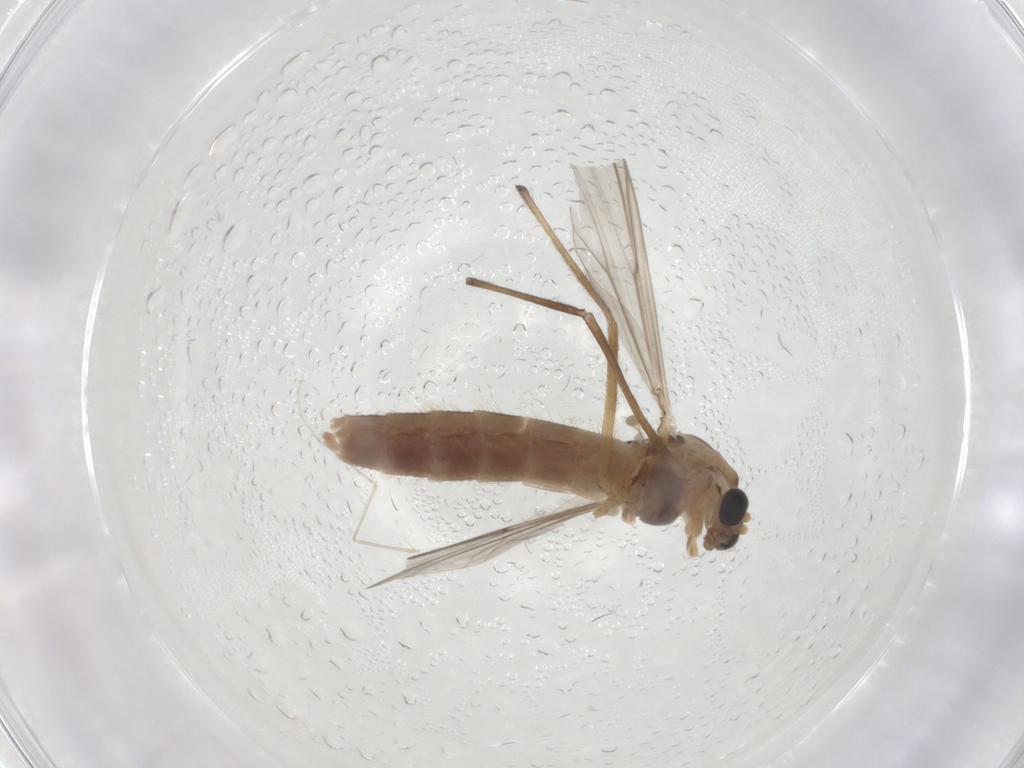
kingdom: Animalia
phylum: Arthropoda
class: Insecta
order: Diptera
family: Chironomidae
